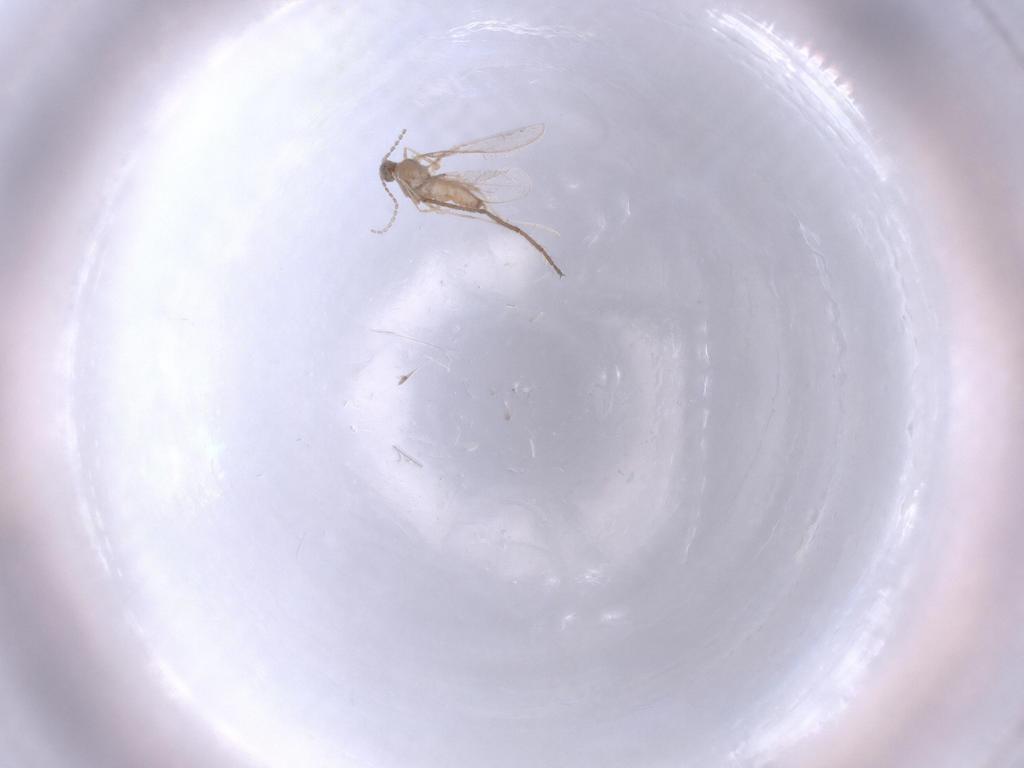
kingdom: Animalia
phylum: Arthropoda
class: Insecta
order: Diptera
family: Cecidomyiidae
